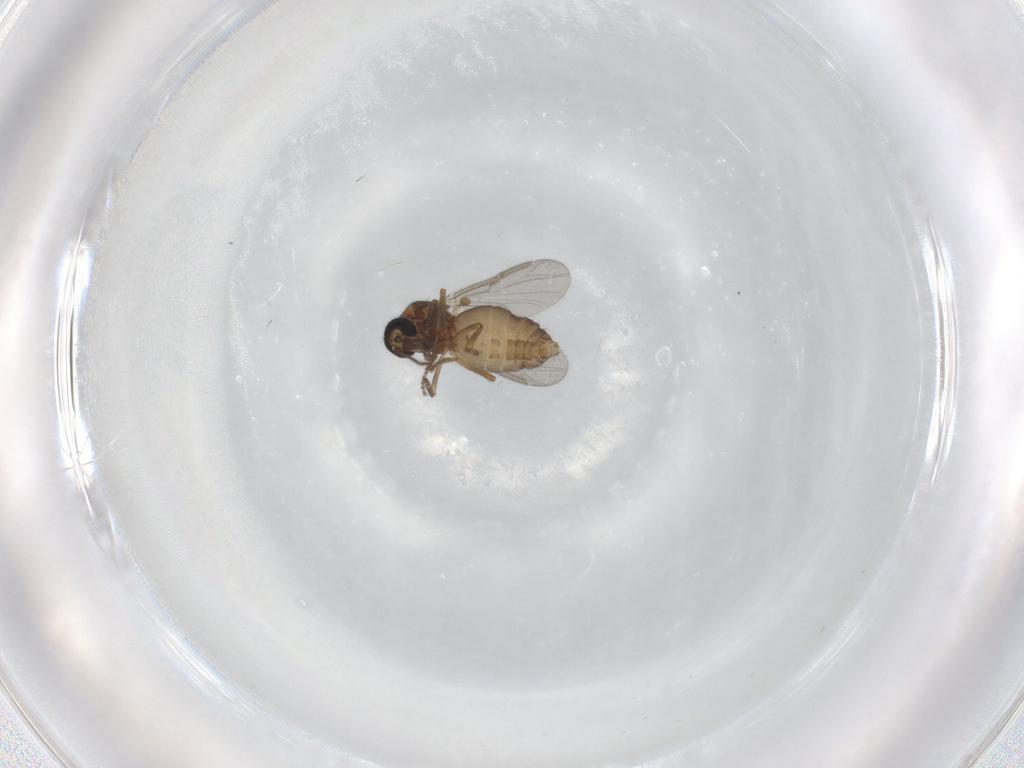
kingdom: Animalia
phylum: Arthropoda
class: Insecta
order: Diptera
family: Ceratopogonidae
